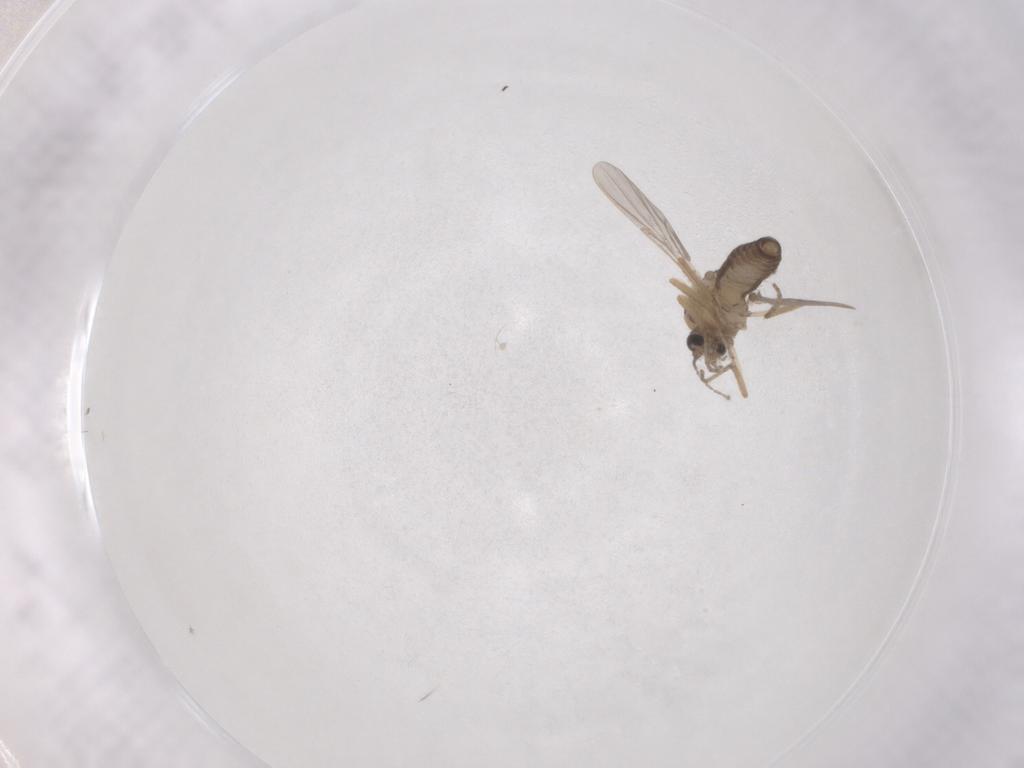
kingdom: Animalia
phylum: Arthropoda
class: Insecta
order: Diptera
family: Ceratopogonidae
